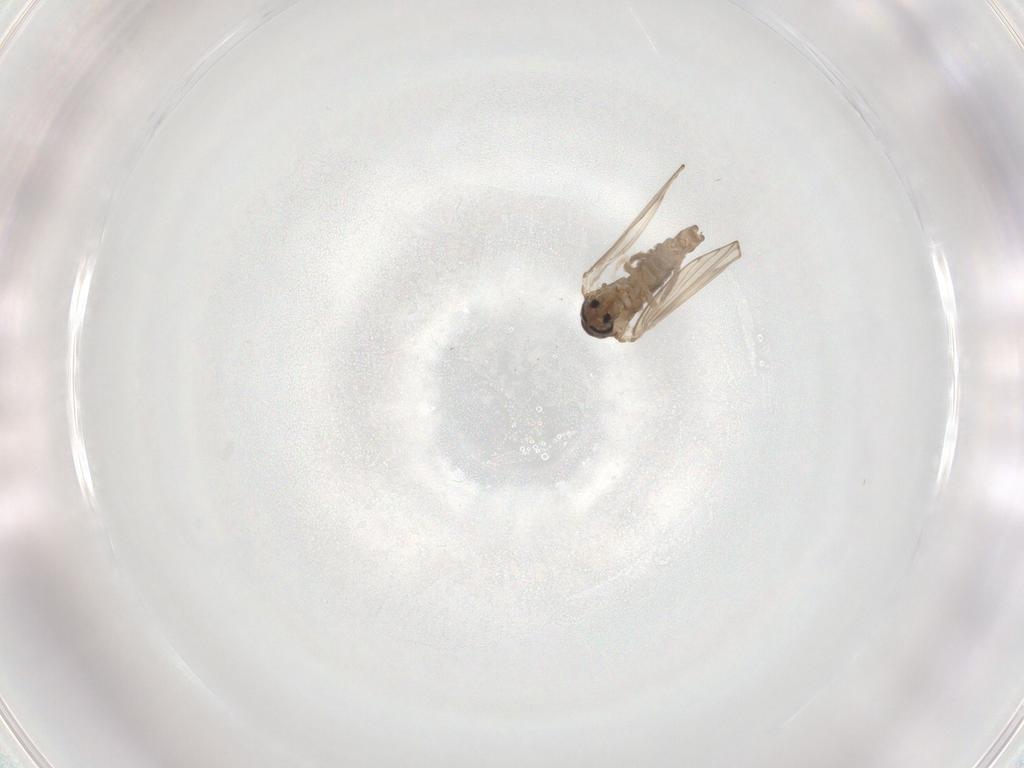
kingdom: Animalia
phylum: Arthropoda
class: Insecta
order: Diptera
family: Psychodidae
